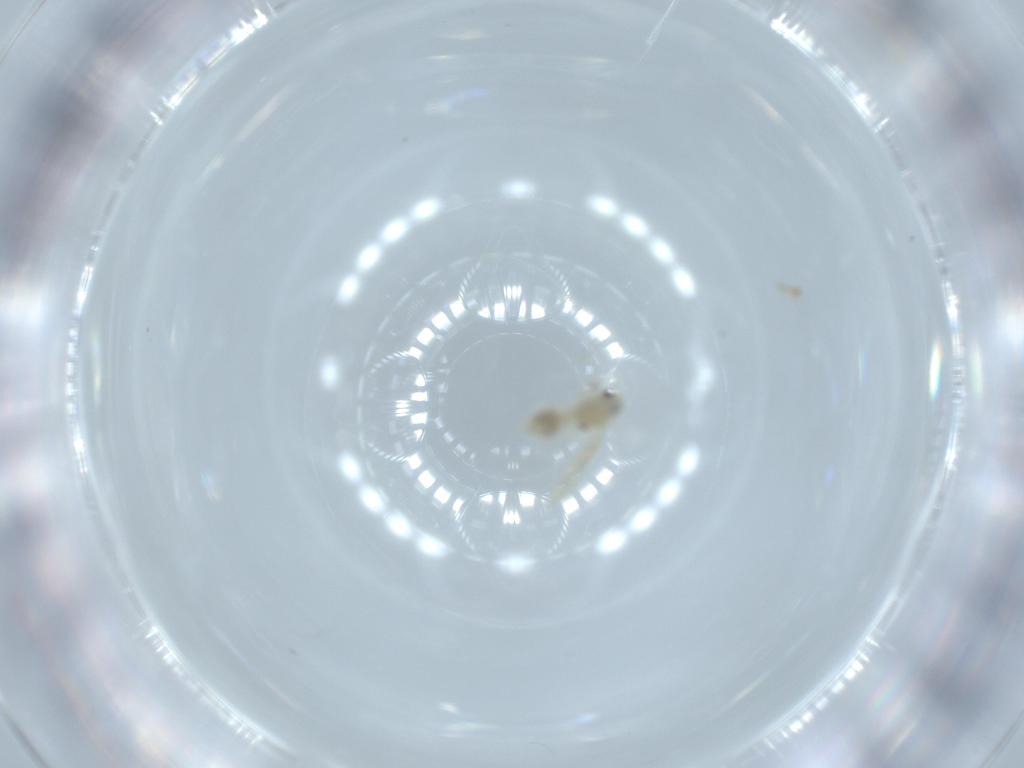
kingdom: Animalia
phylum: Arthropoda
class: Insecta
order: Hemiptera
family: Aleyrodidae
